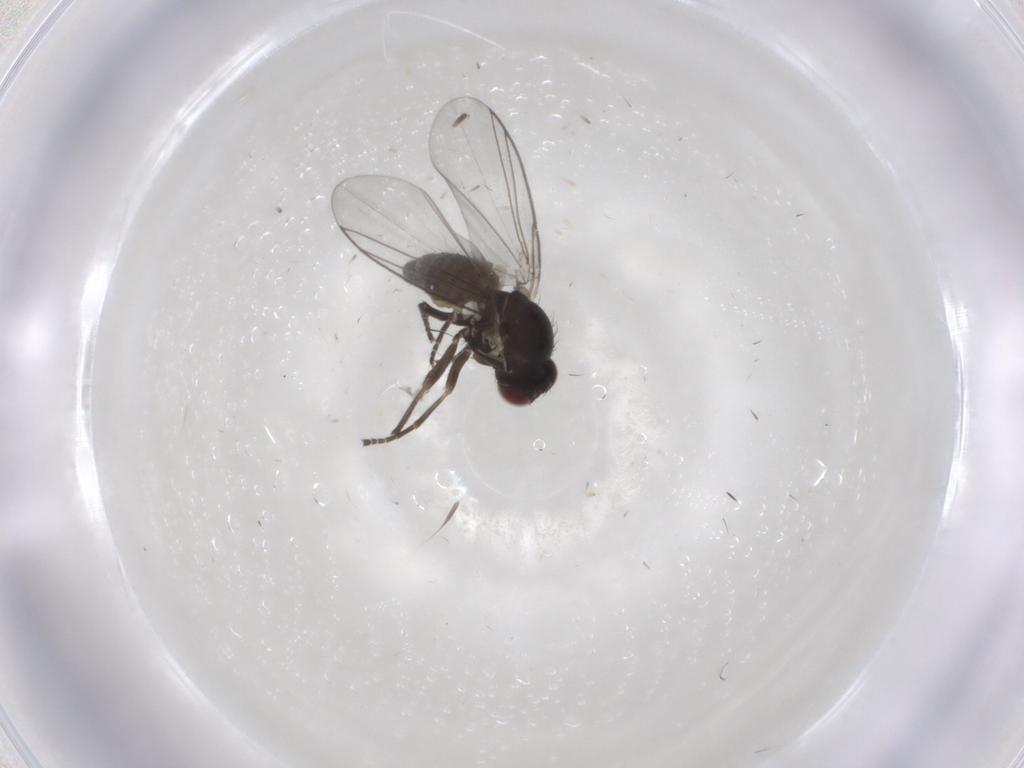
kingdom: Animalia
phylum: Arthropoda
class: Insecta
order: Diptera
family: Agromyzidae
